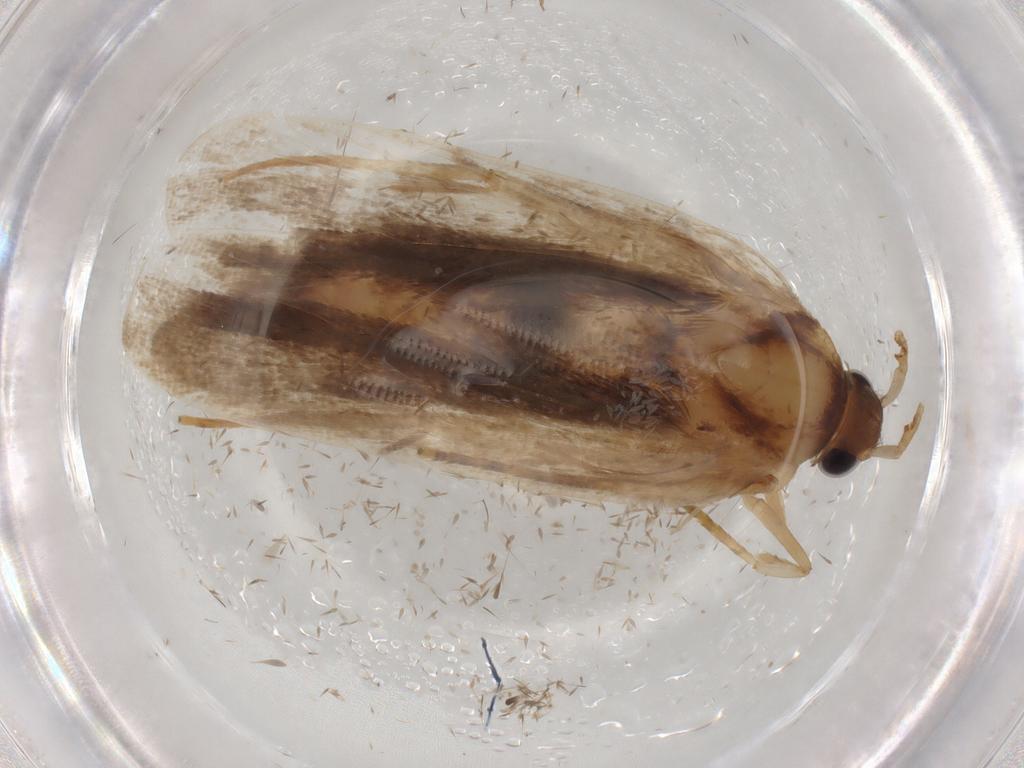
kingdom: Animalia
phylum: Arthropoda
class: Insecta
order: Lepidoptera
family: Autostichidae
